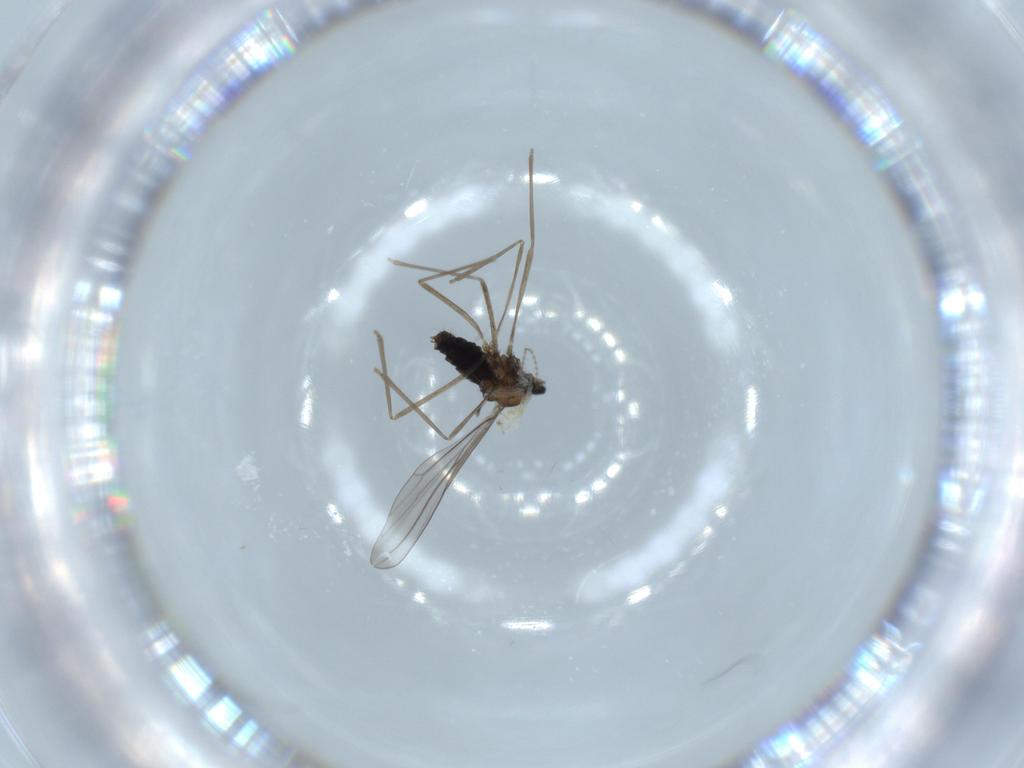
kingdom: Animalia
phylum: Arthropoda
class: Insecta
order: Diptera
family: Cecidomyiidae
